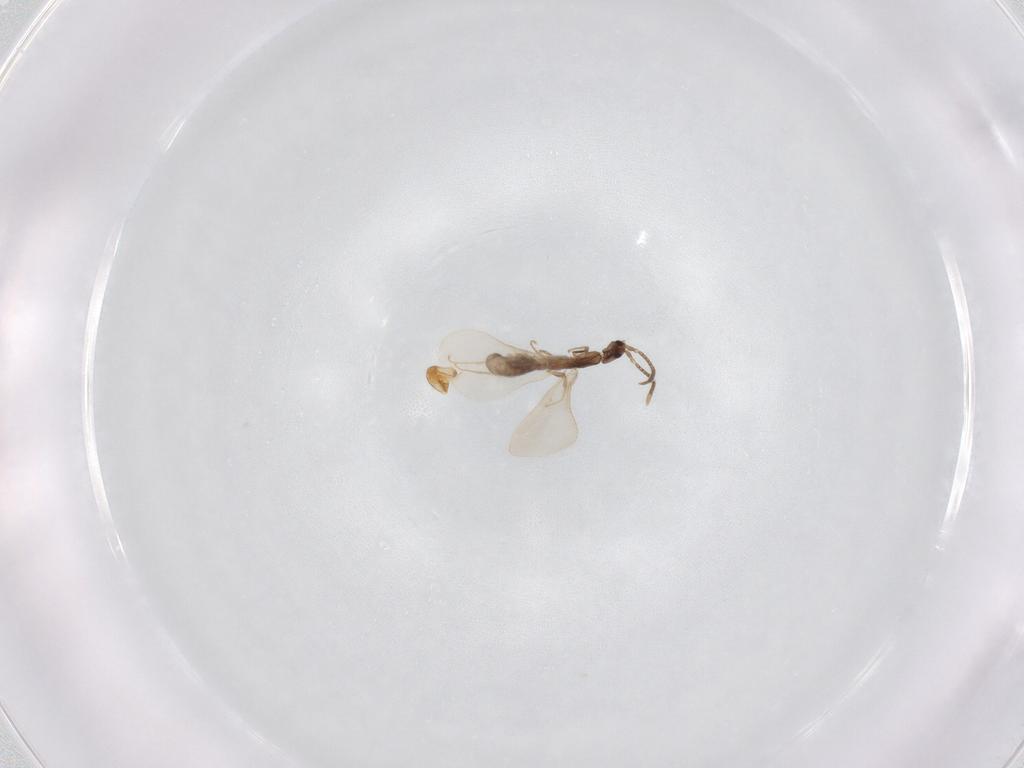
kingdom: Animalia
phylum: Arthropoda
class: Insecta
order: Hymenoptera
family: Formicidae
